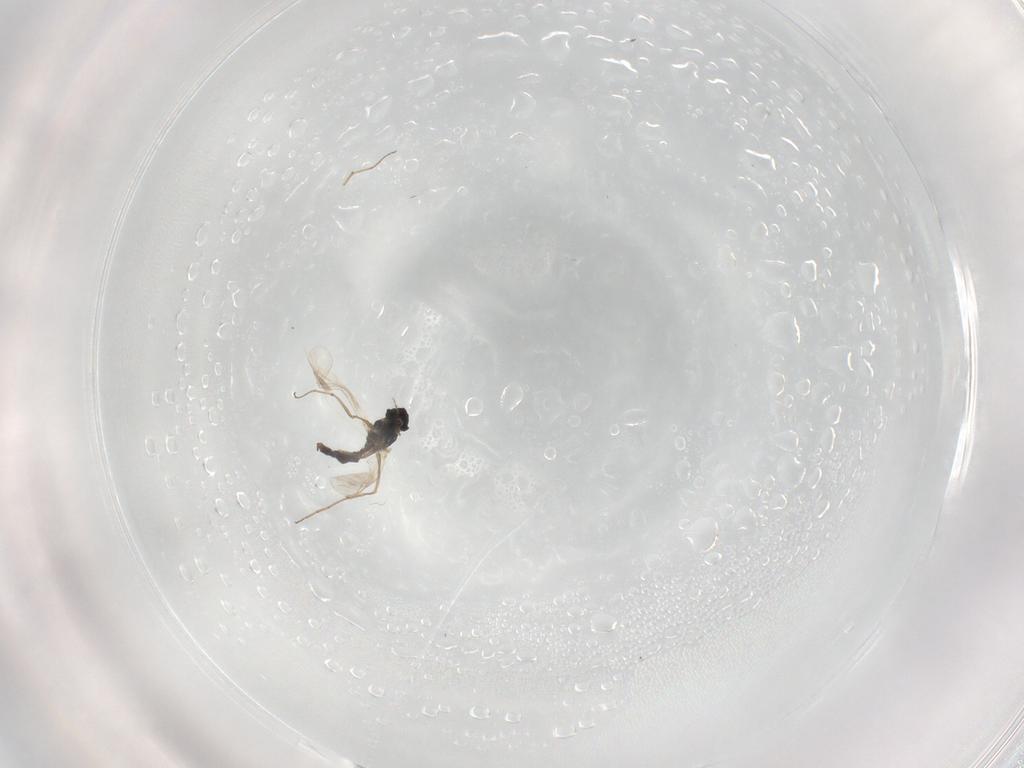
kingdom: Animalia
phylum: Arthropoda
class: Insecta
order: Diptera
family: Chironomidae
